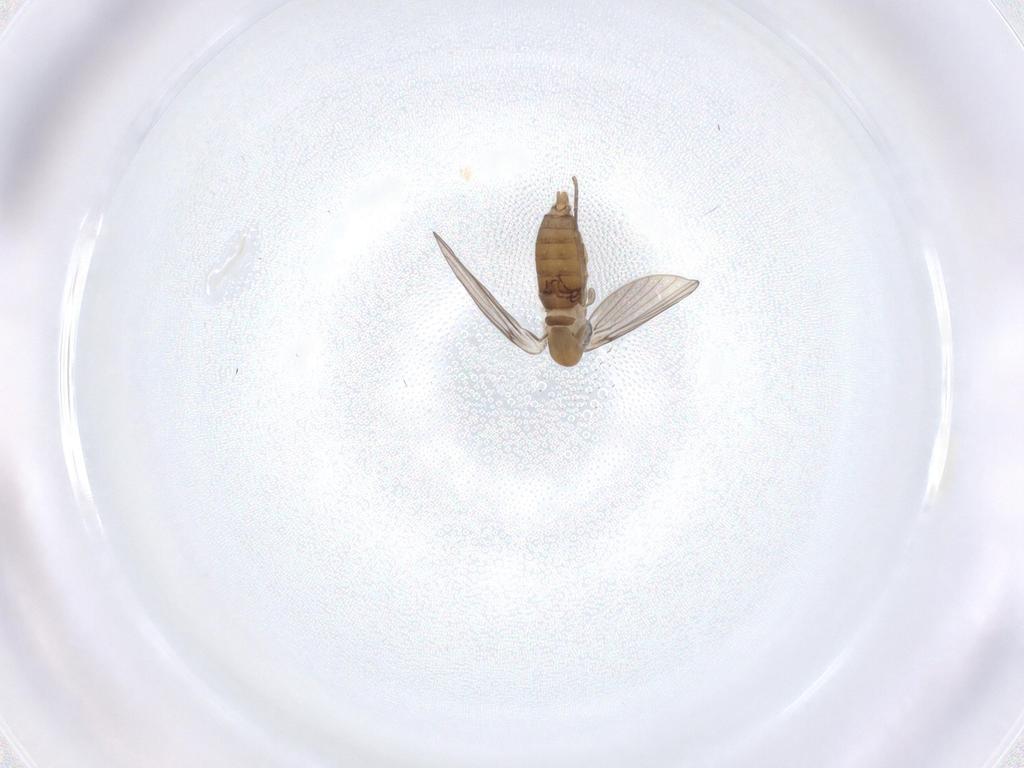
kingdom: Animalia
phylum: Arthropoda
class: Insecta
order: Diptera
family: Psychodidae
